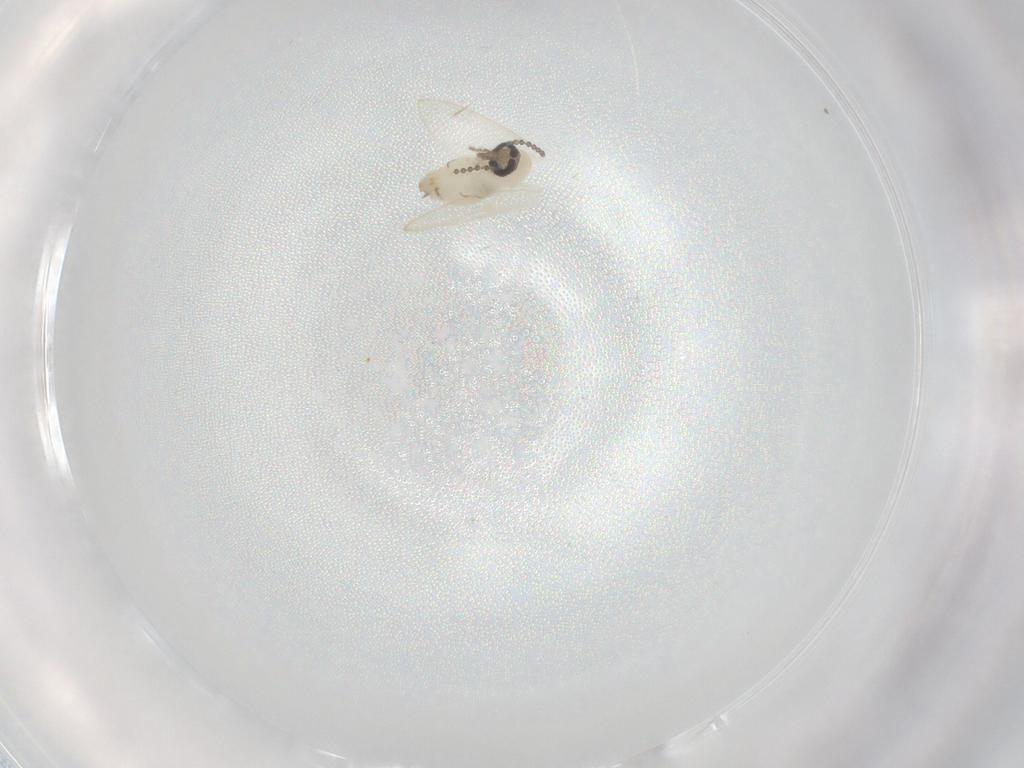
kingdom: Animalia
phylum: Arthropoda
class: Insecta
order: Diptera
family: Psychodidae
